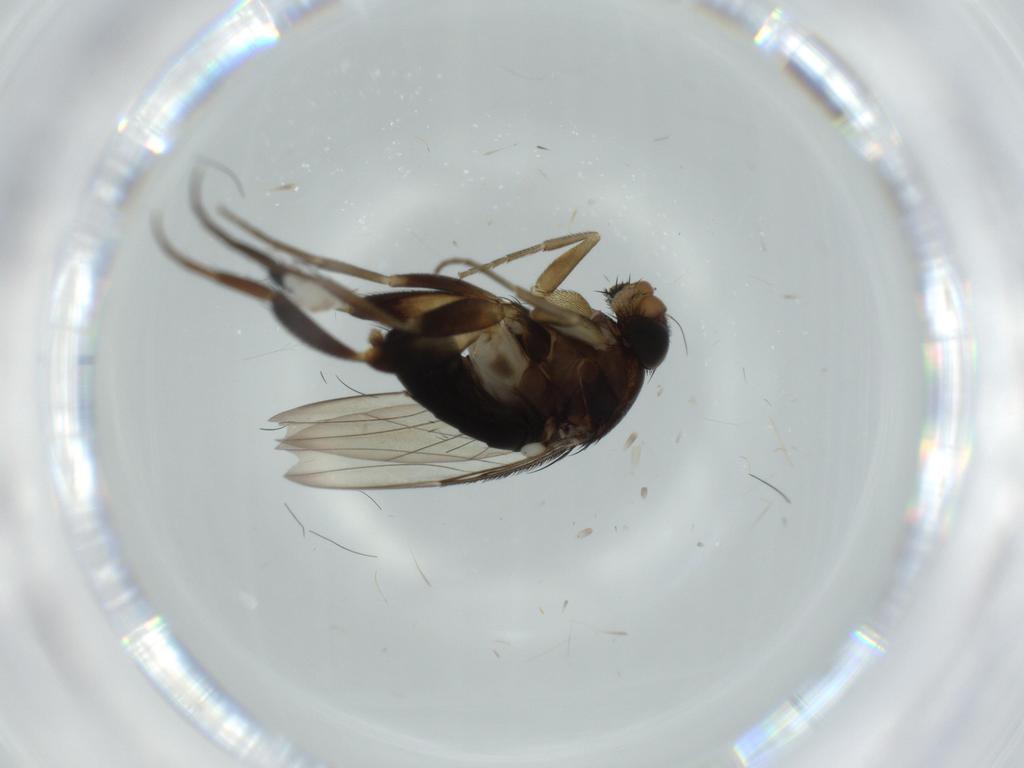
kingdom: Animalia
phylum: Arthropoda
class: Insecta
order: Diptera
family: Phoridae
